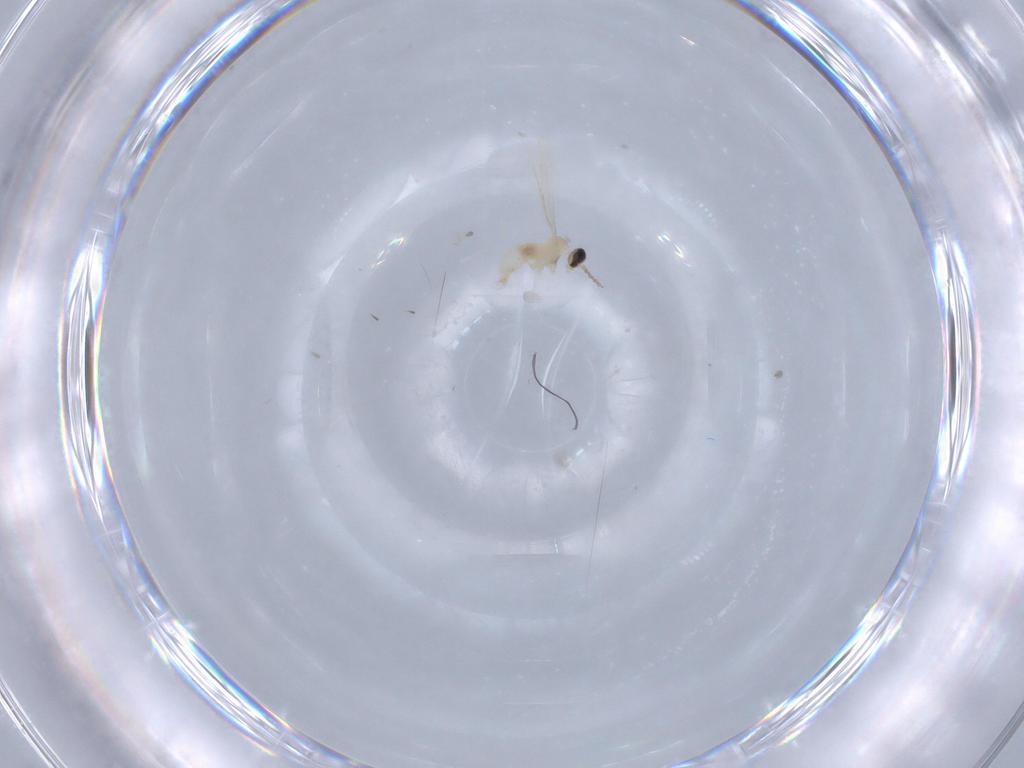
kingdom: Animalia
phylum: Arthropoda
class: Insecta
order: Diptera
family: Cecidomyiidae
